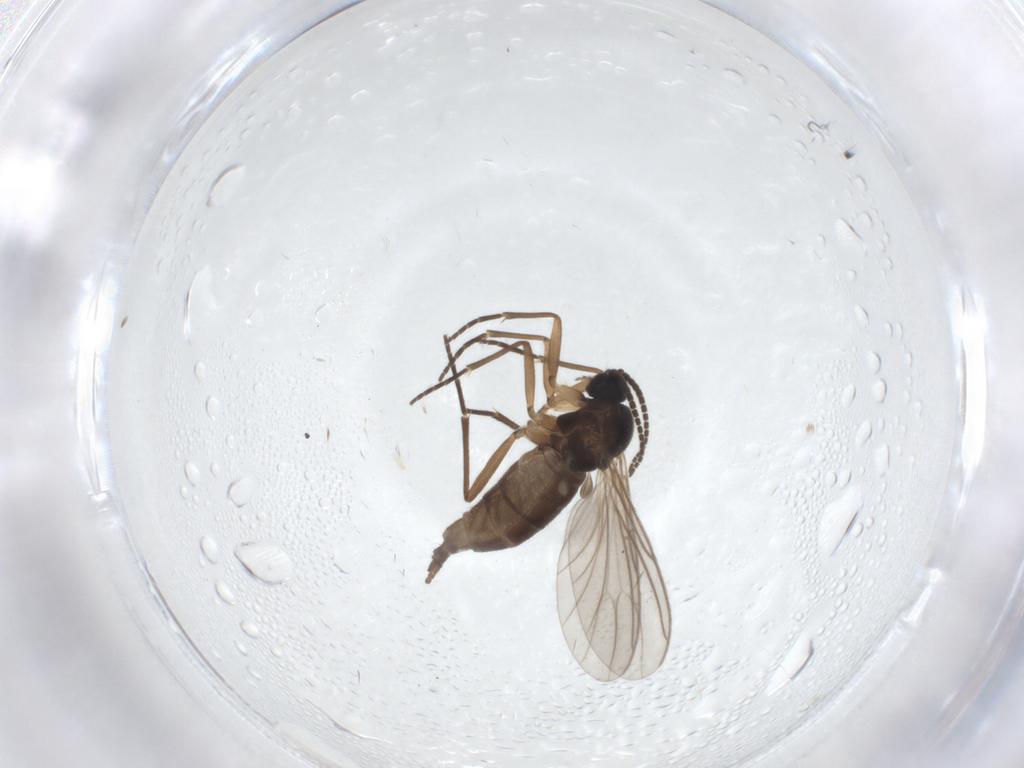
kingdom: Animalia
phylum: Arthropoda
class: Insecta
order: Diptera
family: Sciaridae
